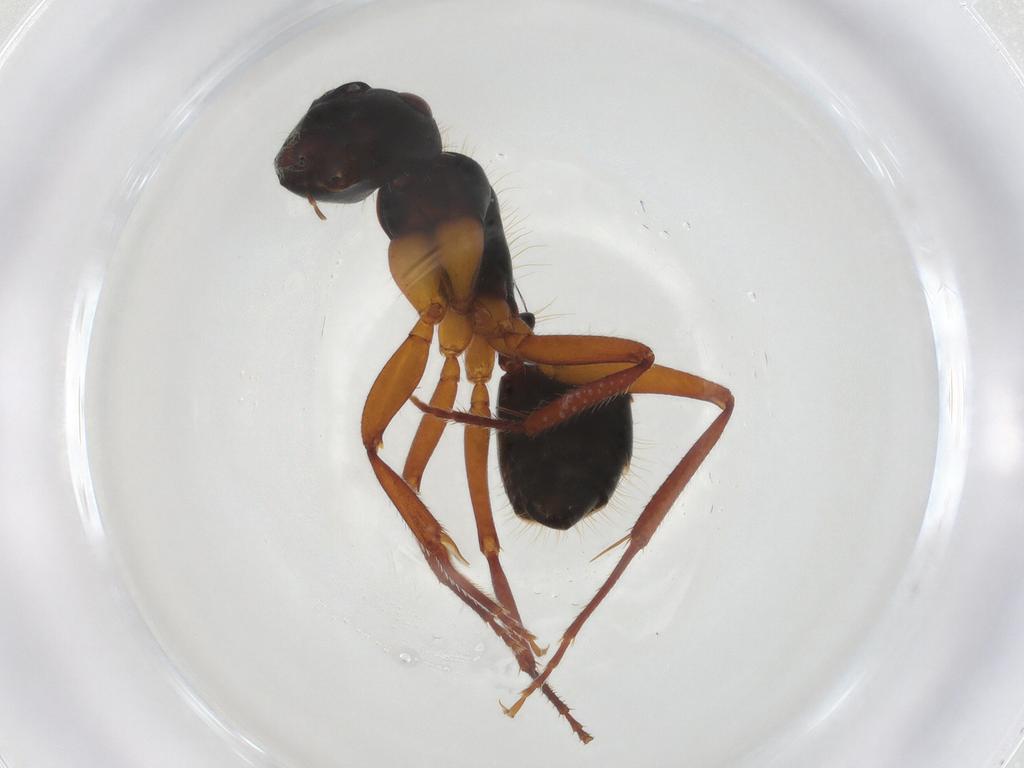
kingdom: Animalia
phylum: Arthropoda
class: Insecta
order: Hymenoptera
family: Formicidae
